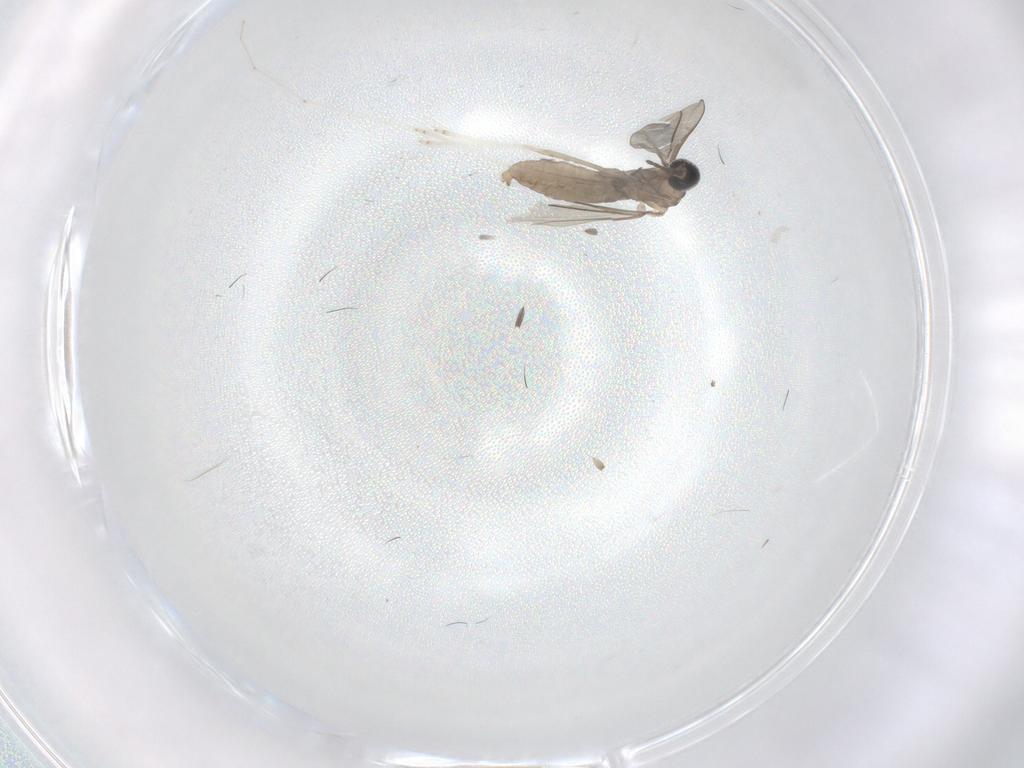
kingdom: Animalia
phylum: Arthropoda
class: Insecta
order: Diptera
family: Cecidomyiidae
